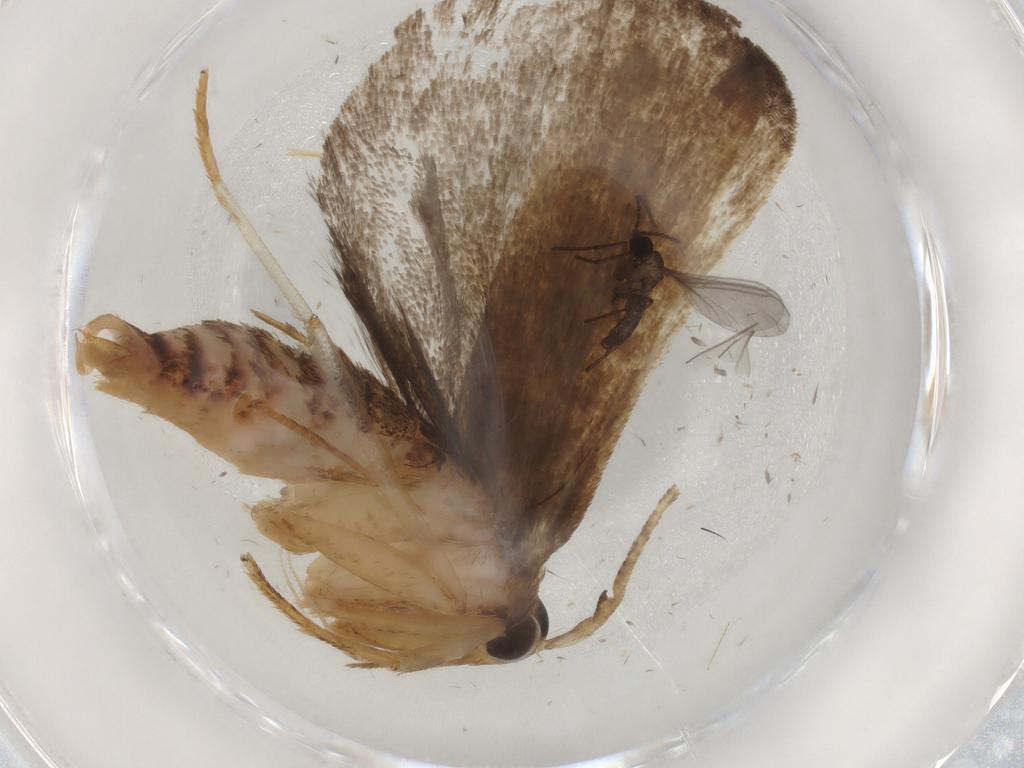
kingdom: Animalia
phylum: Arthropoda
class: Insecta
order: Lepidoptera
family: Autostichidae
